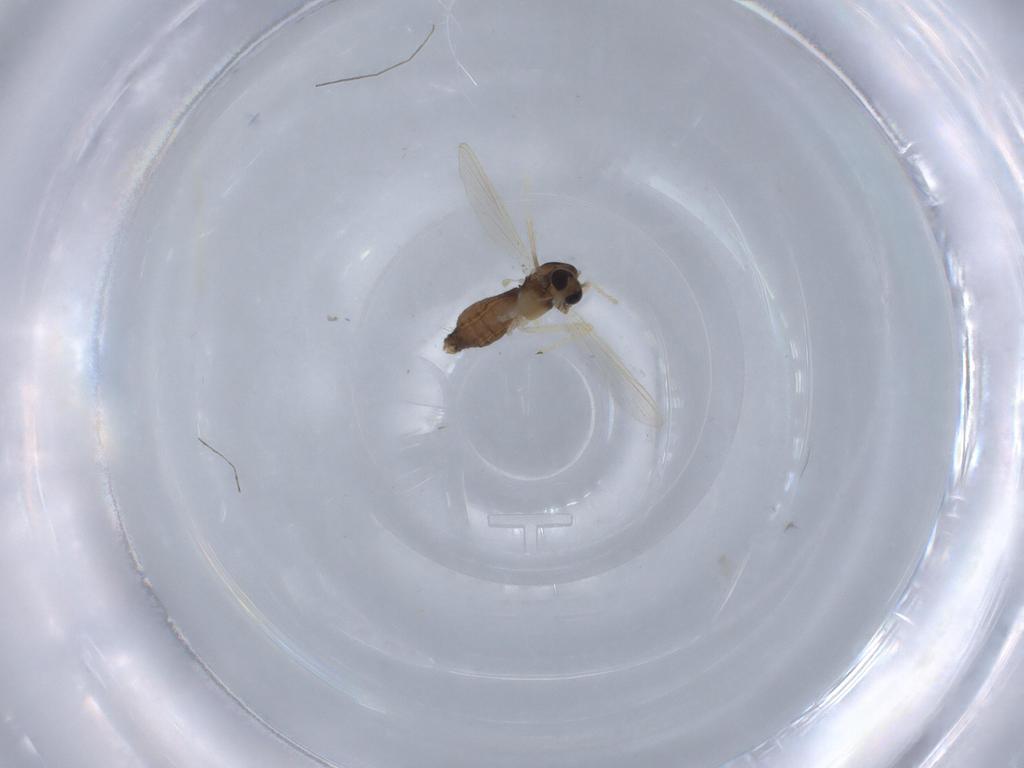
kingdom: Animalia
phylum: Arthropoda
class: Insecta
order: Diptera
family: Chironomidae
